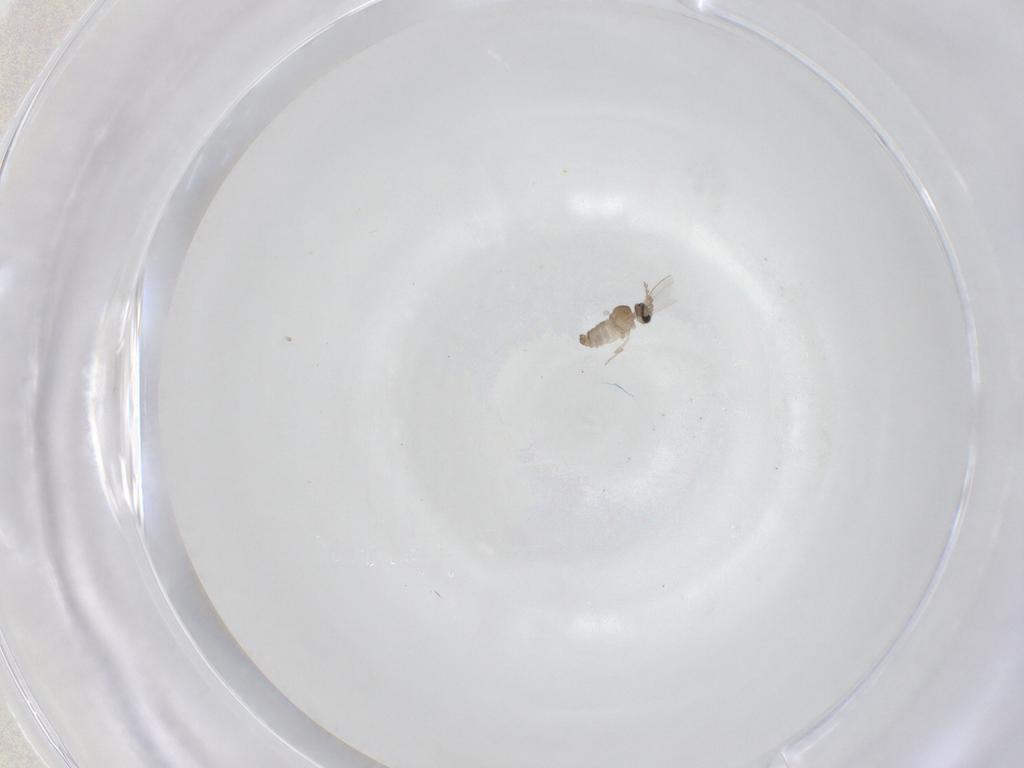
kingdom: Animalia
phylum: Arthropoda
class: Insecta
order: Diptera
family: Cecidomyiidae
